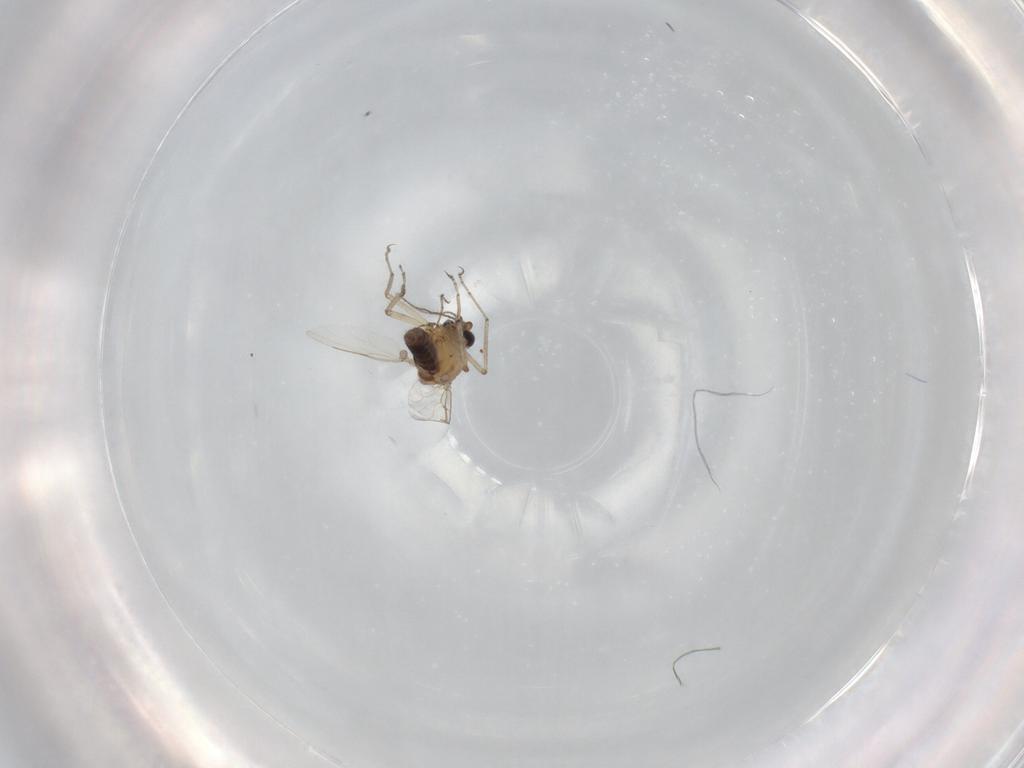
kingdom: Animalia
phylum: Arthropoda
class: Insecta
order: Diptera
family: Ceratopogonidae
